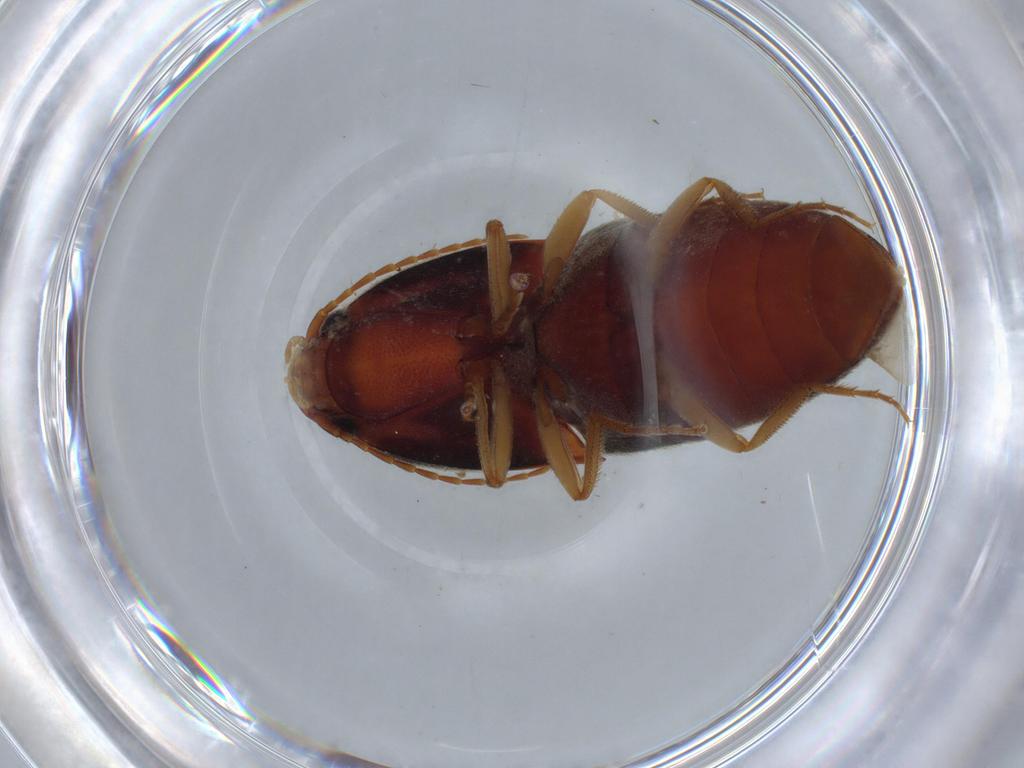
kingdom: Animalia
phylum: Arthropoda
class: Insecta
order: Coleoptera
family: Elateridae
